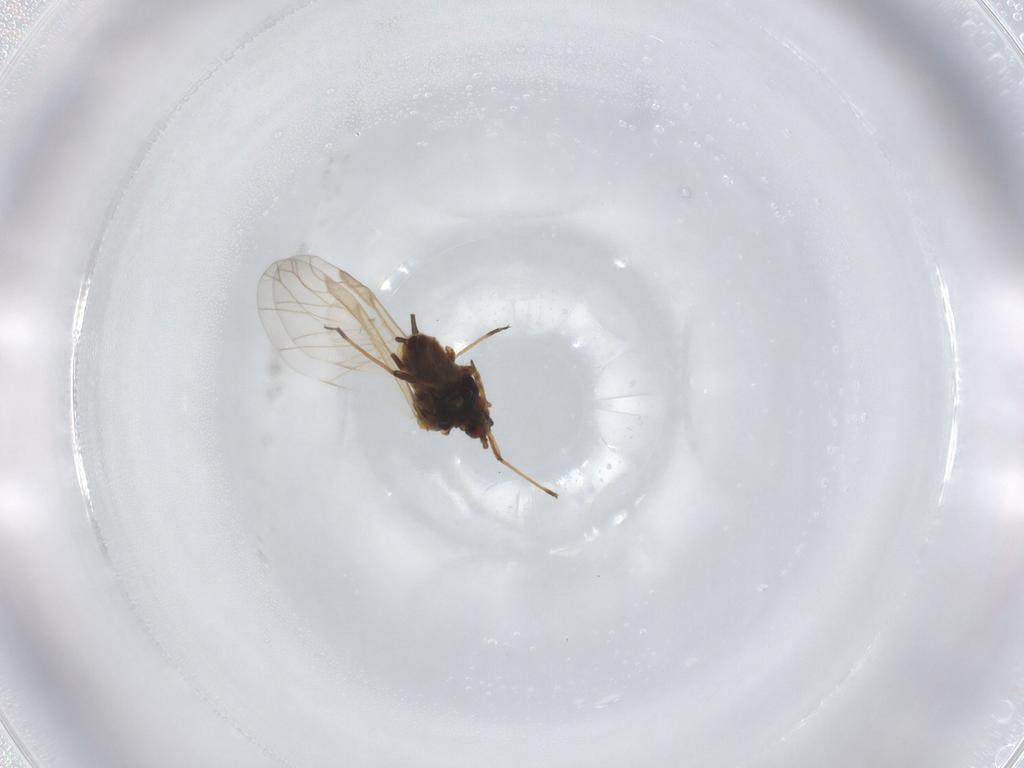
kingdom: Animalia
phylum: Arthropoda
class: Insecta
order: Hemiptera
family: Aphididae
